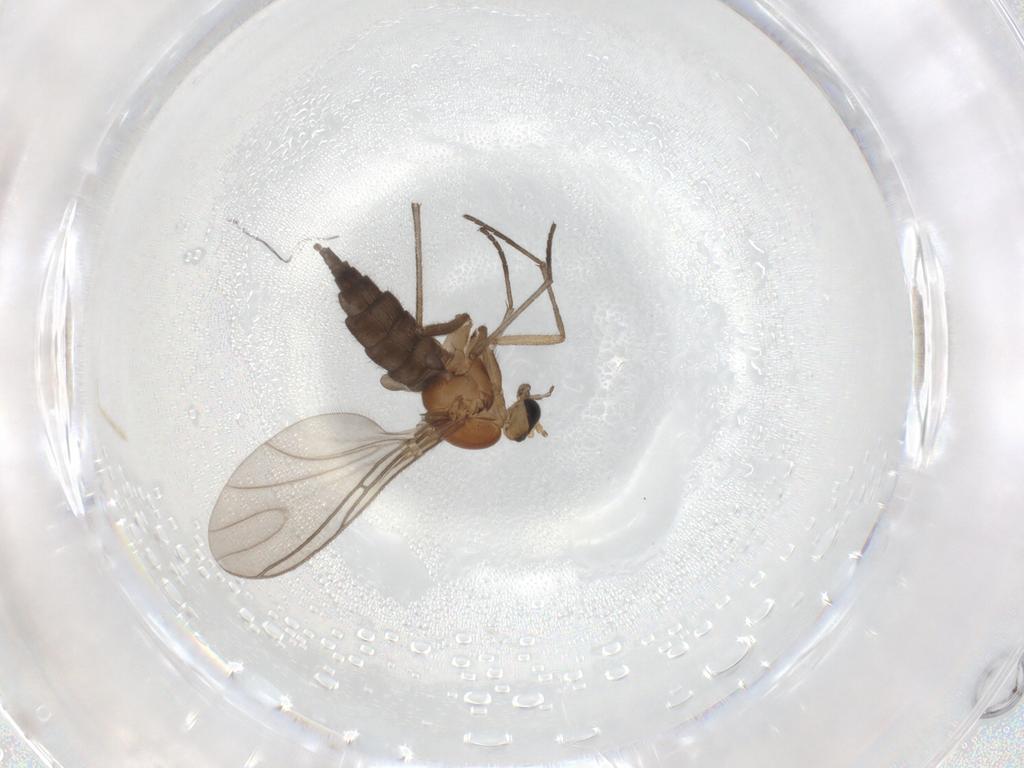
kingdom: Animalia
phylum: Arthropoda
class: Insecta
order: Diptera
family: Sciaridae
